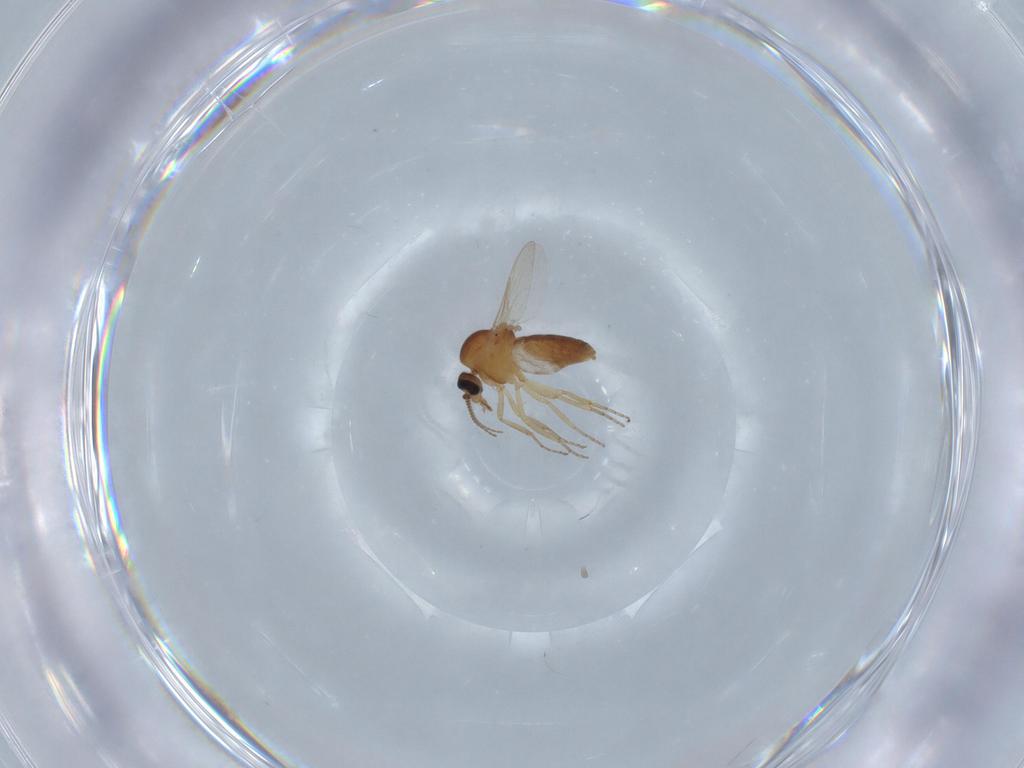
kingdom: Animalia
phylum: Arthropoda
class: Insecta
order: Diptera
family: Ceratopogonidae
